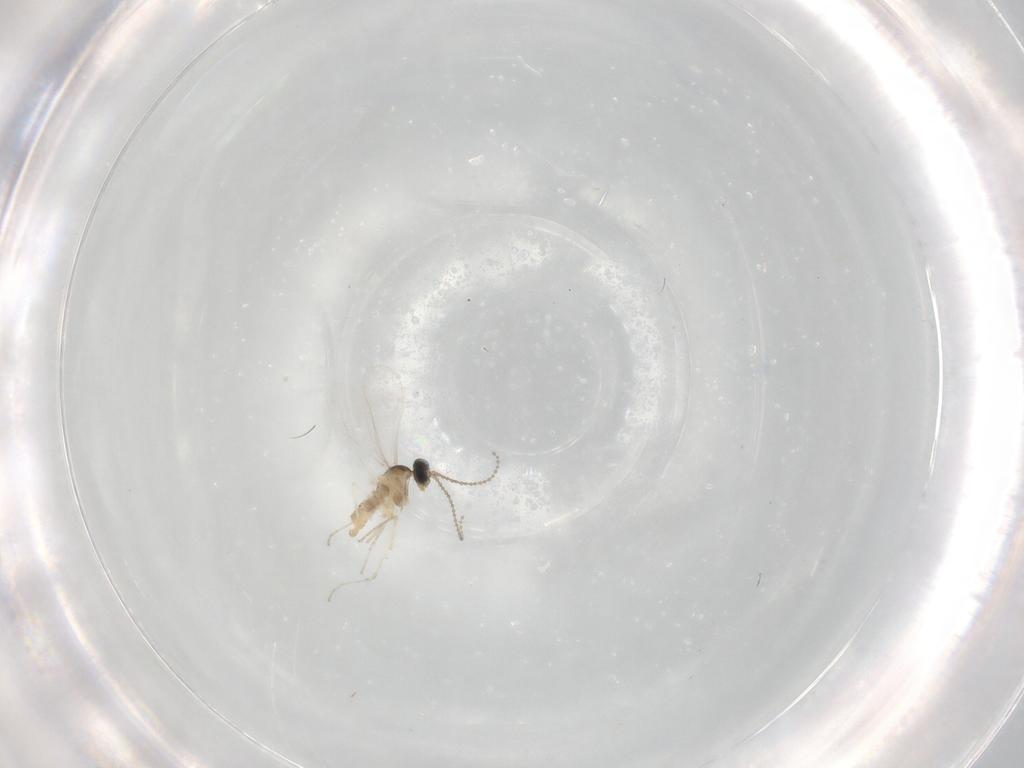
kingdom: Animalia
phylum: Arthropoda
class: Insecta
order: Diptera
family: Cecidomyiidae
